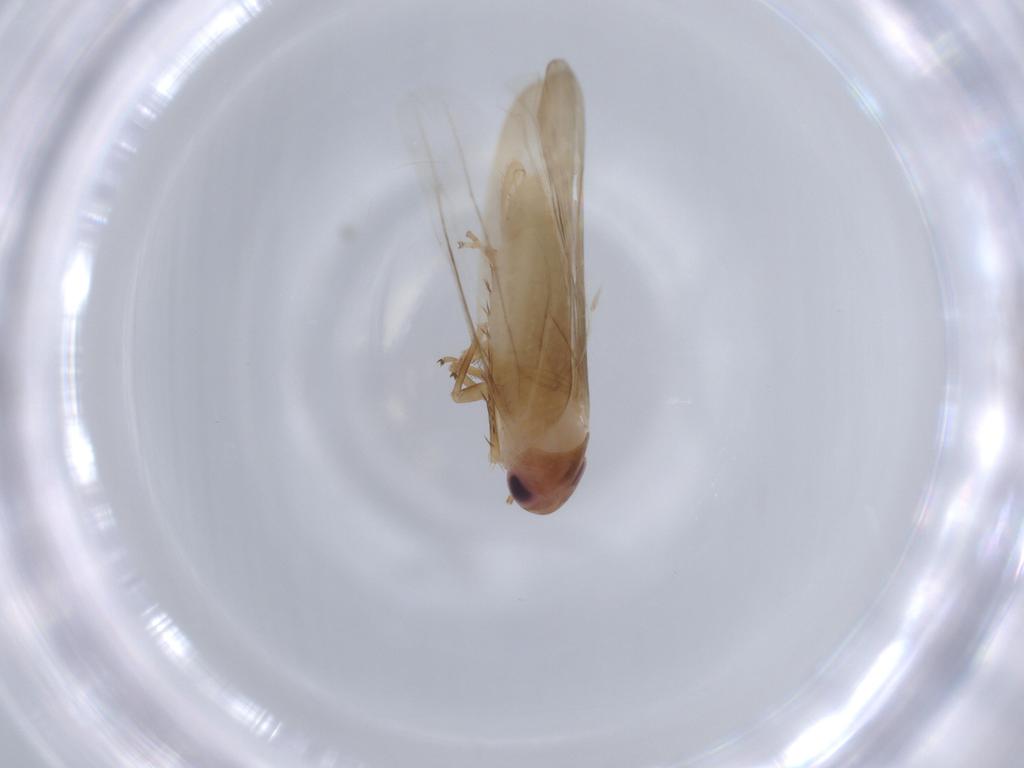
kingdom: Animalia
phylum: Arthropoda
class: Insecta
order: Hemiptera
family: Cicadellidae
